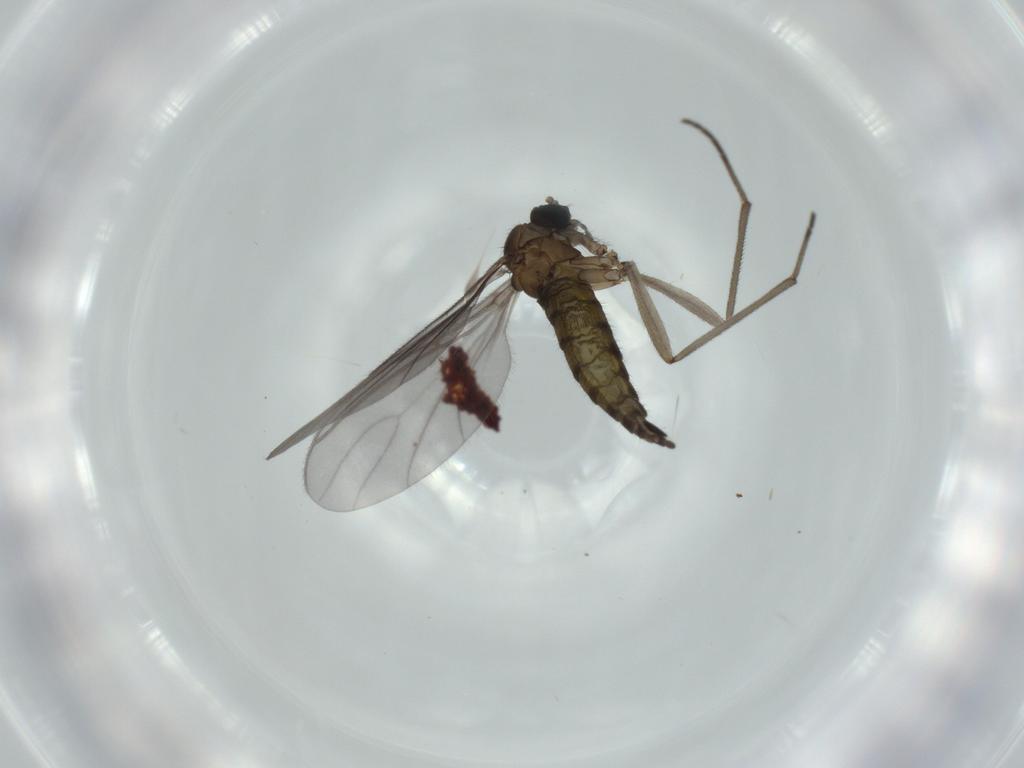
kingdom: Animalia
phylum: Arthropoda
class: Insecta
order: Diptera
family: Sciaridae
